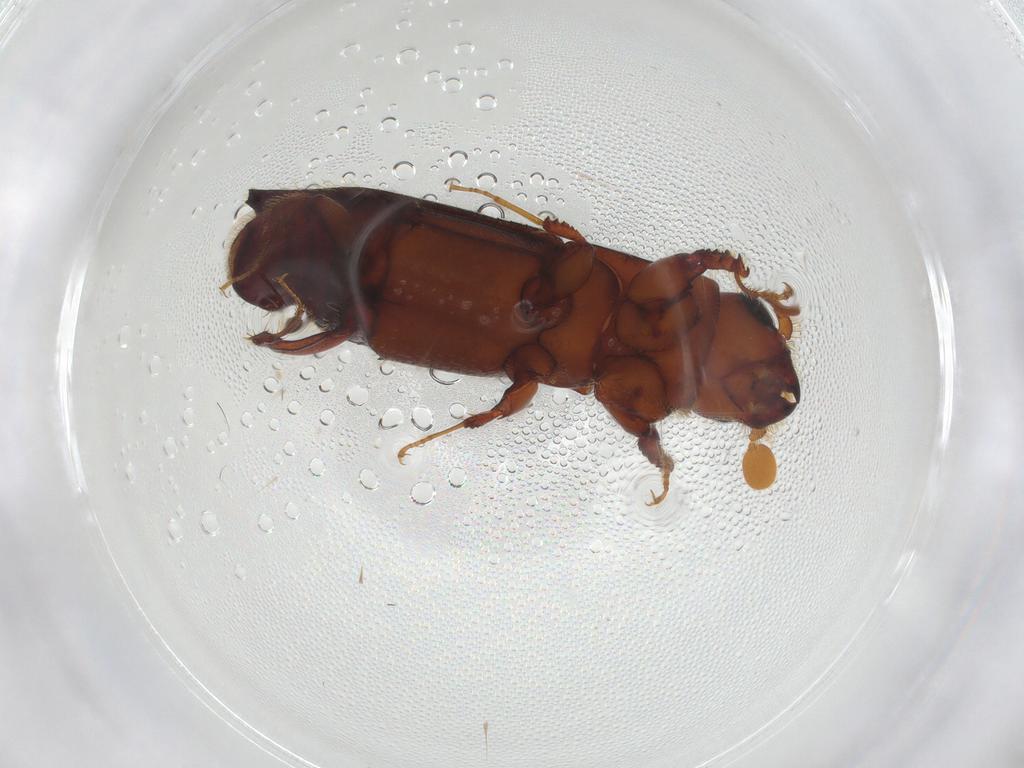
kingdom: Animalia
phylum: Arthropoda
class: Insecta
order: Coleoptera
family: Curculionidae
